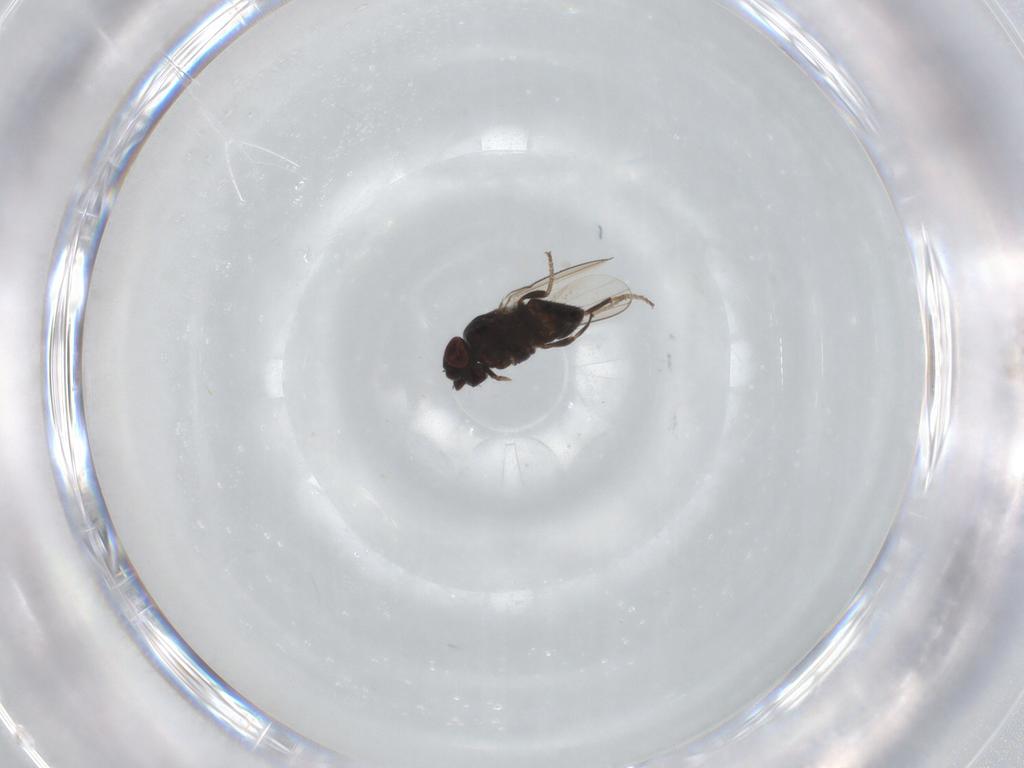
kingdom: Animalia
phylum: Arthropoda
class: Insecta
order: Diptera
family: Milichiidae
